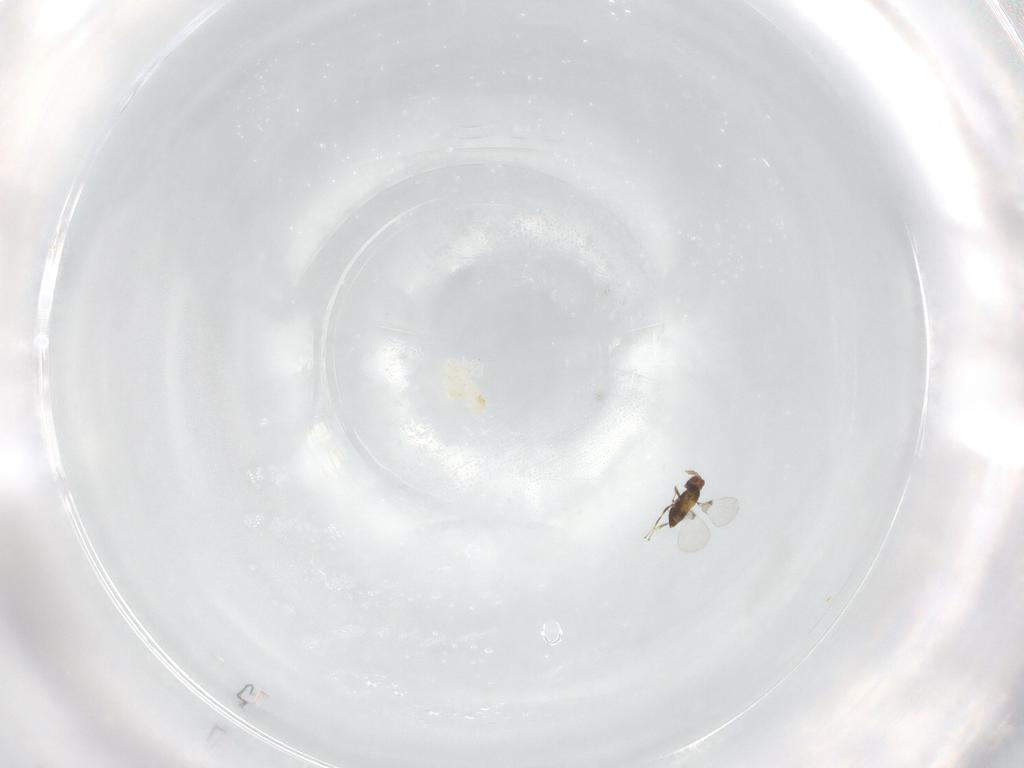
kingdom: Animalia
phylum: Arthropoda
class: Insecta
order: Hymenoptera
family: Trichogrammatidae
